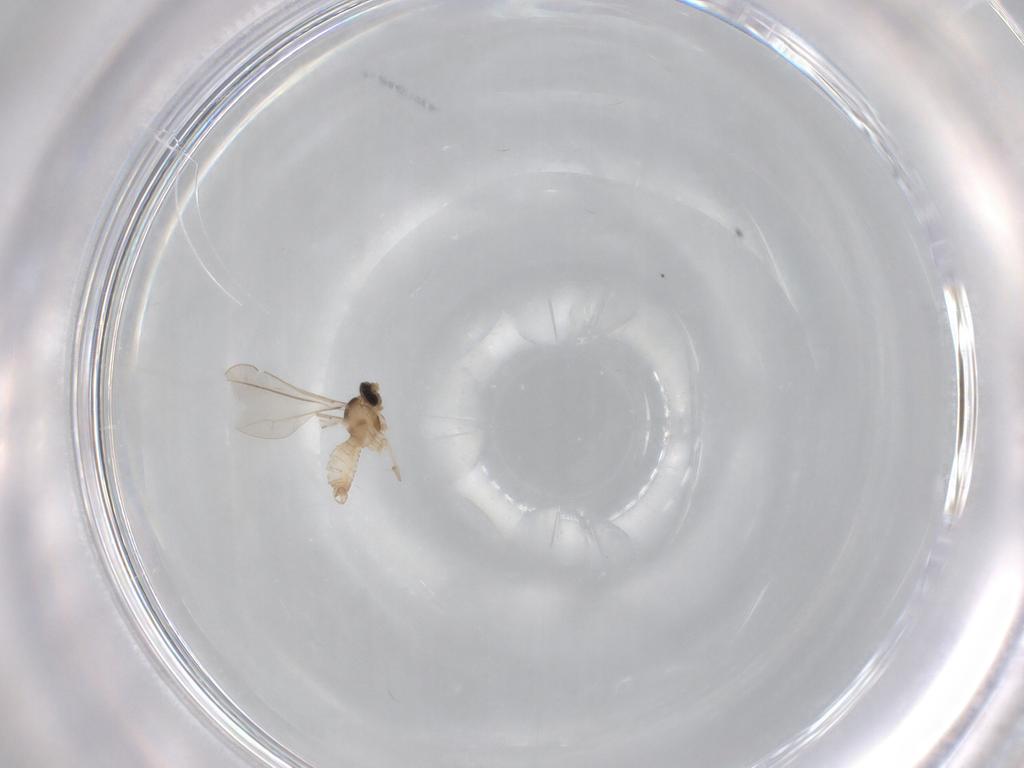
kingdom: Animalia
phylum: Arthropoda
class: Insecta
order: Diptera
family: Cecidomyiidae
